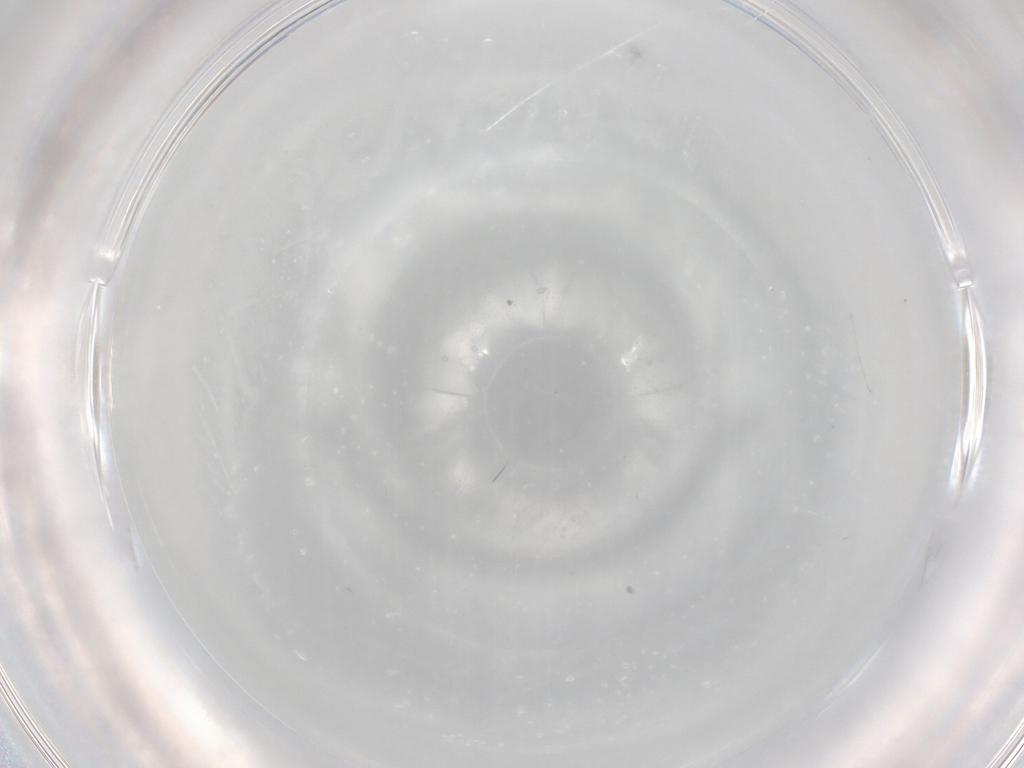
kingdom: Animalia
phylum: Arthropoda
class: Insecta
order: Diptera
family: Cecidomyiidae
